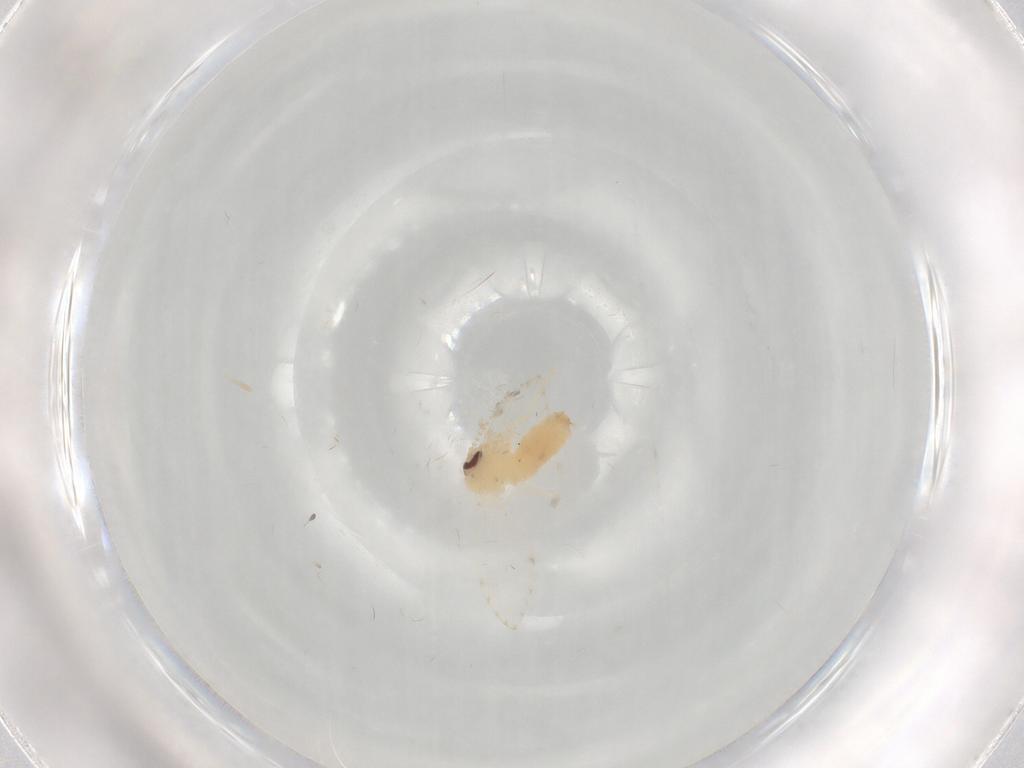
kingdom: Animalia
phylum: Arthropoda
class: Insecta
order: Diptera
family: Psychodidae
